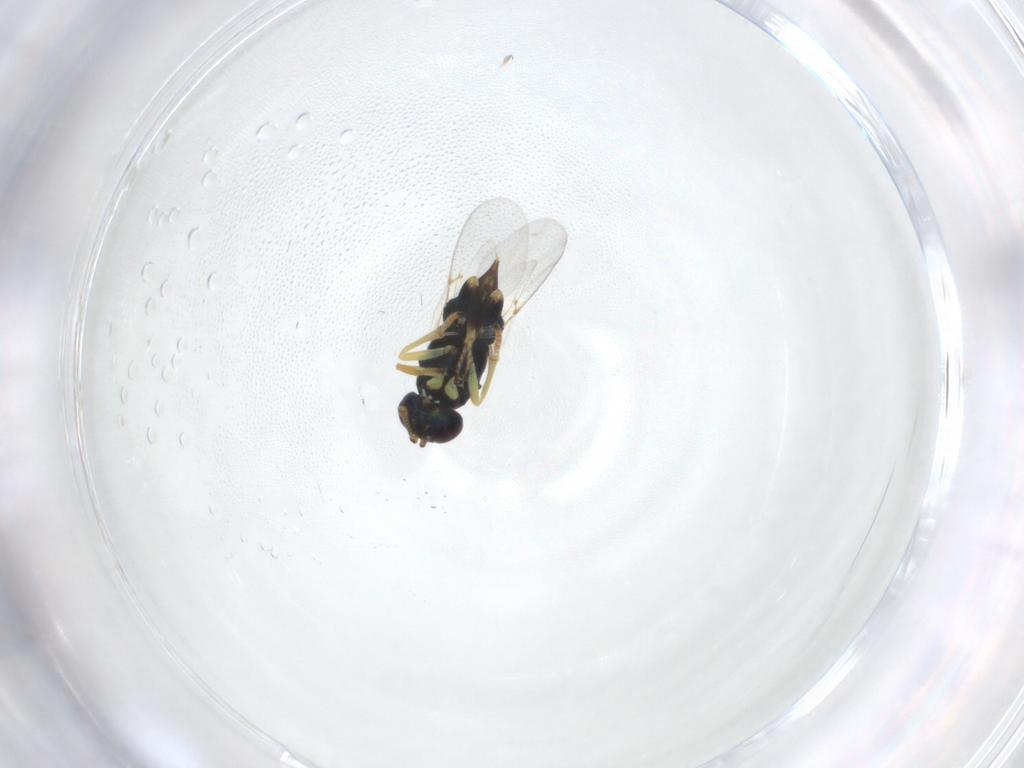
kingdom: Animalia
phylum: Arthropoda
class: Insecta
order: Hymenoptera
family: Encyrtidae
